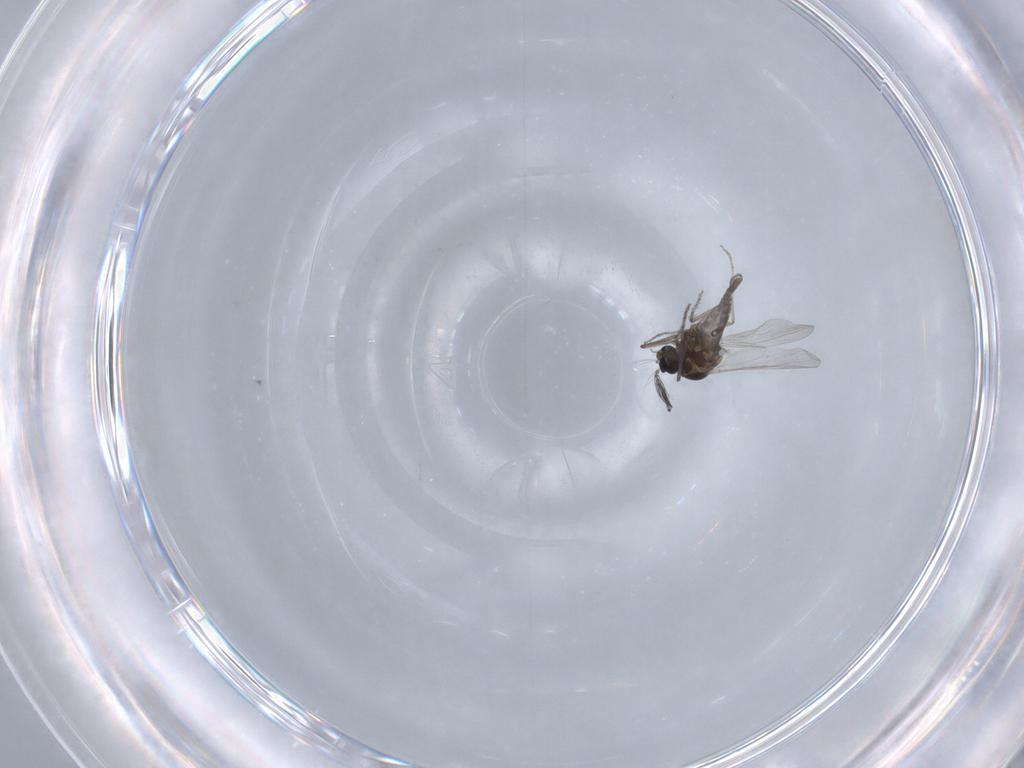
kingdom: Animalia
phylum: Arthropoda
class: Insecta
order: Diptera
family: Ceratopogonidae
